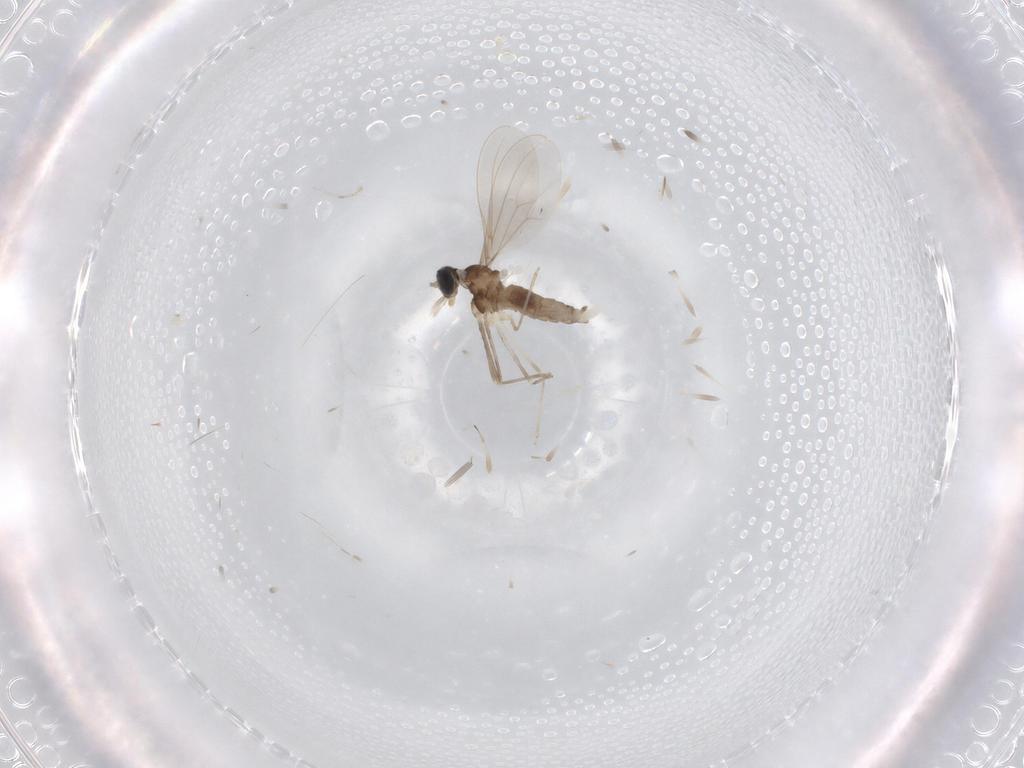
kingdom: Animalia
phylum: Arthropoda
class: Insecta
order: Diptera
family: Cecidomyiidae
